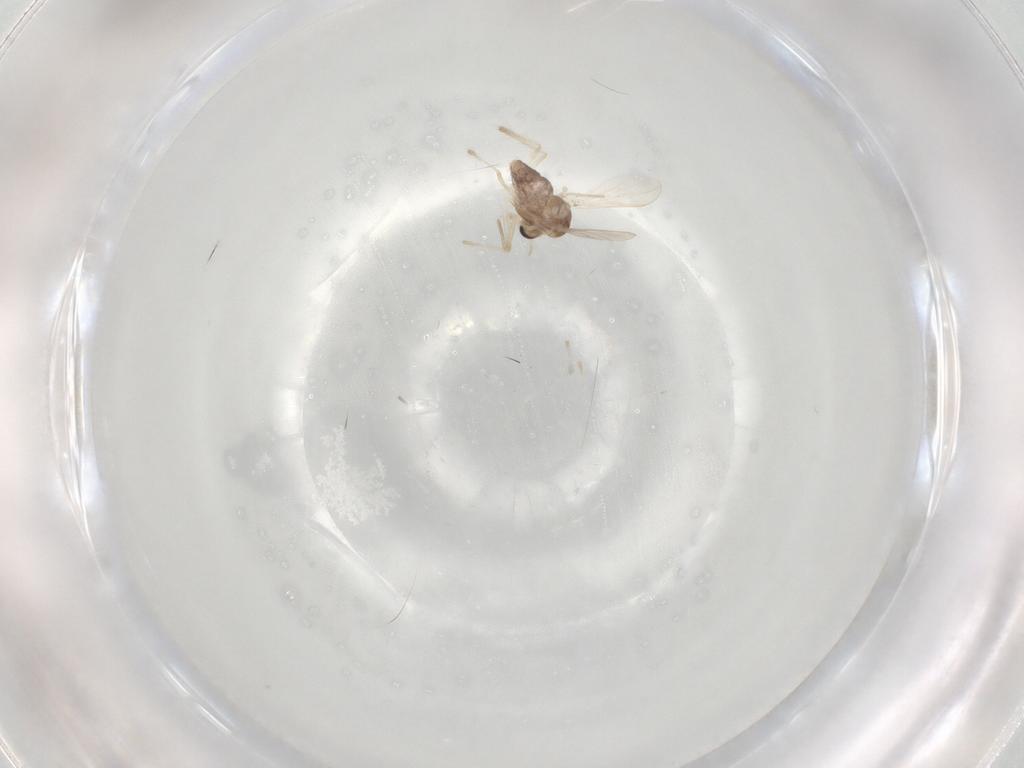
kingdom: Animalia
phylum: Arthropoda
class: Insecta
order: Diptera
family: Chironomidae
